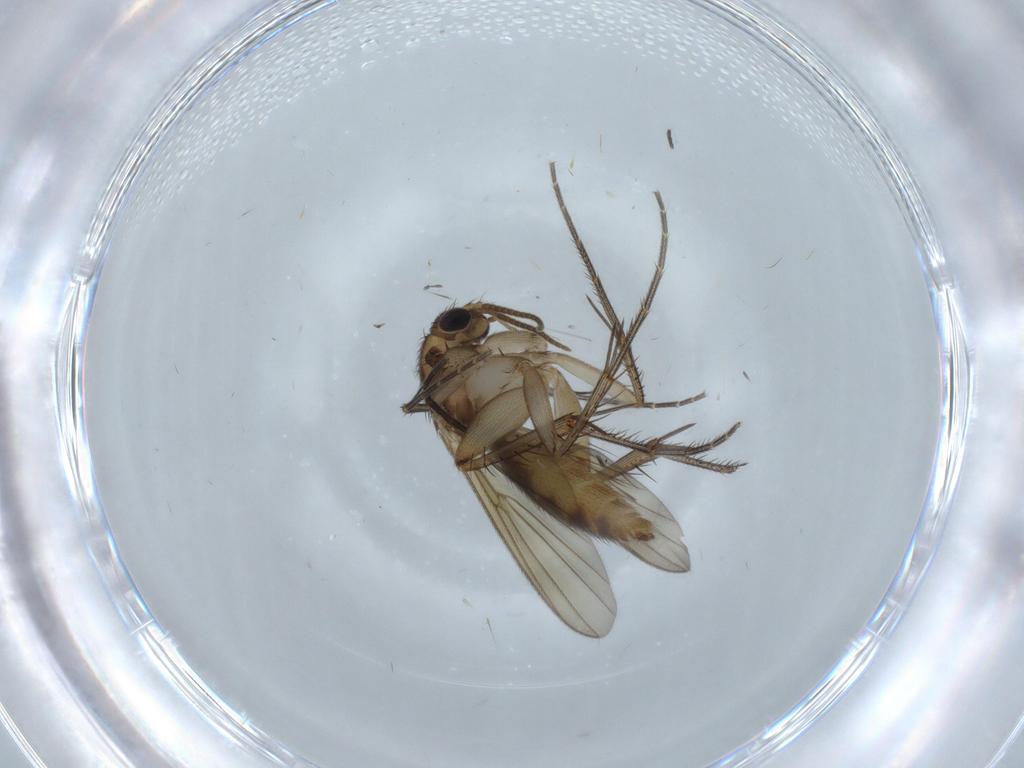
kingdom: Animalia
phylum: Arthropoda
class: Insecta
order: Diptera
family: Mycetophilidae
